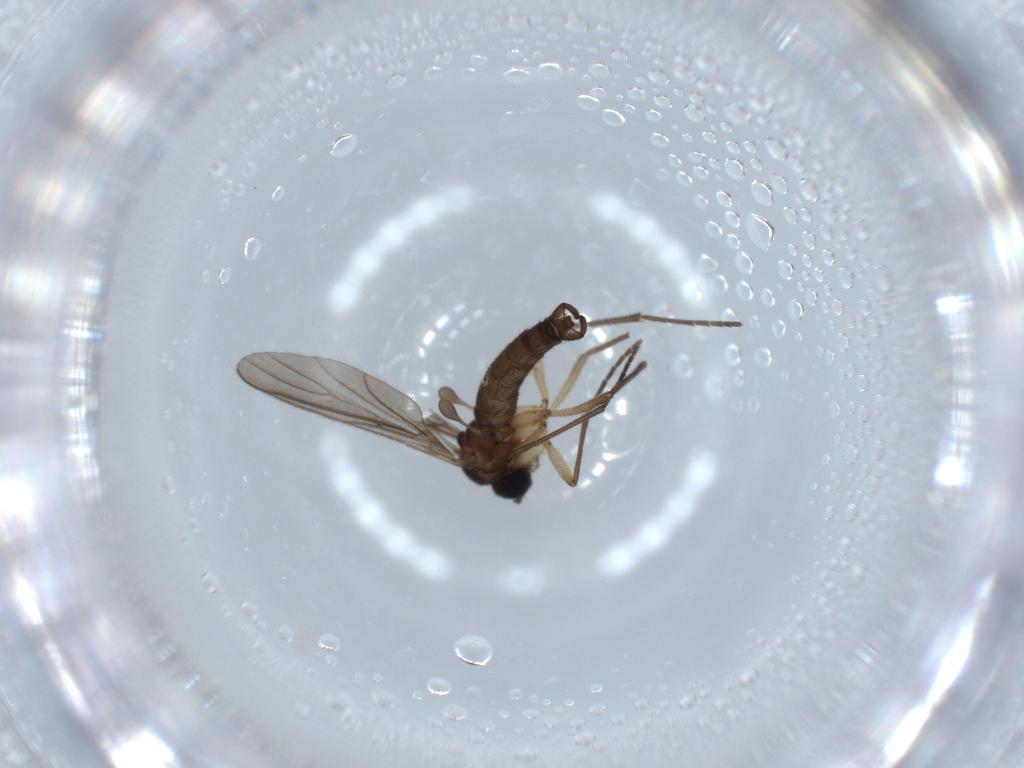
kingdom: Animalia
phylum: Arthropoda
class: Insecta
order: Diptera
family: Sciaridae
